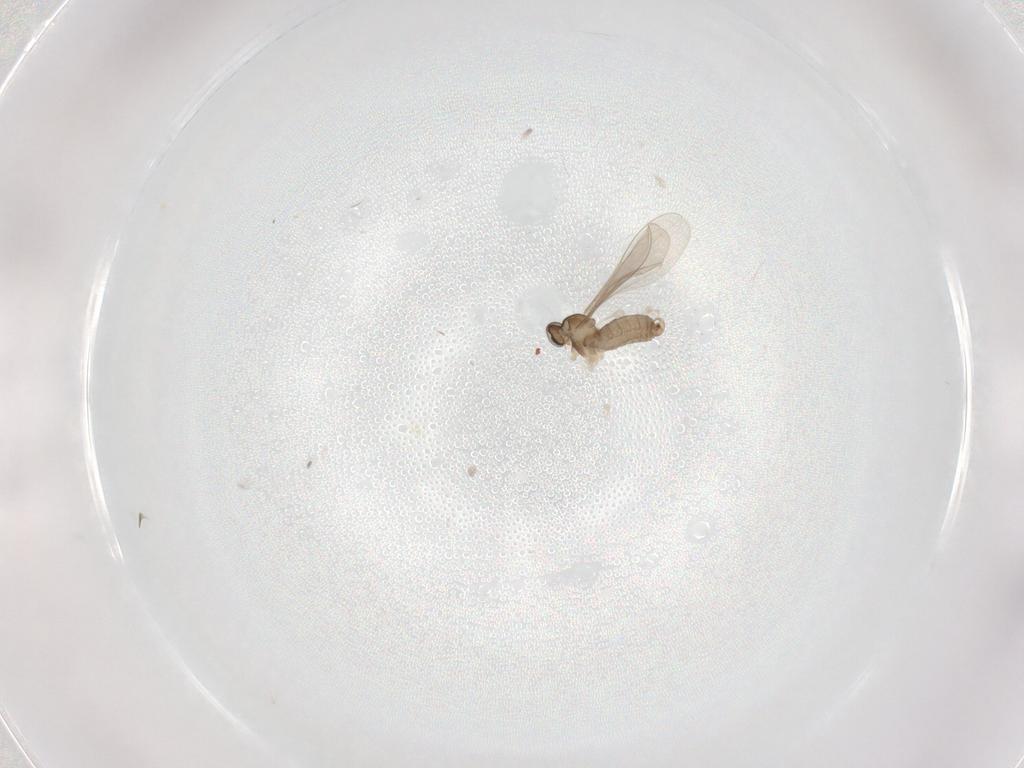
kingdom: Animalia
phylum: Arthropoda
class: Insecta
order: Diptera
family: Cecidomyiidae
